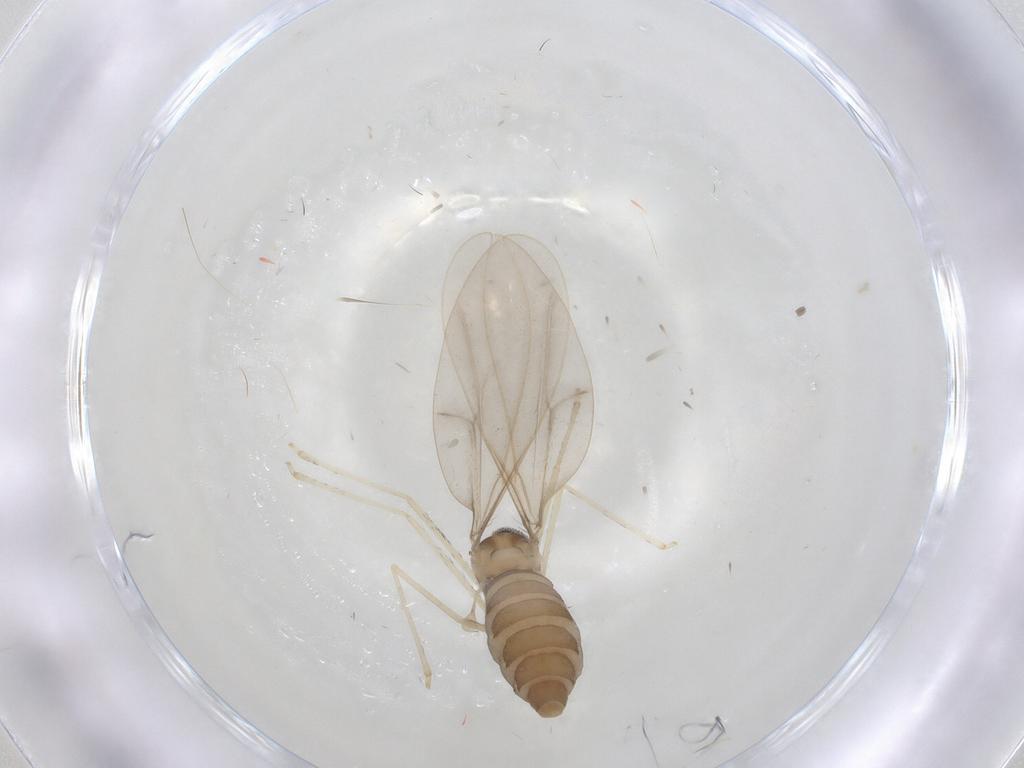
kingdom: Animalia
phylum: Arthropoda
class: Insecta
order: Diptera
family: Cecidomyiidae
